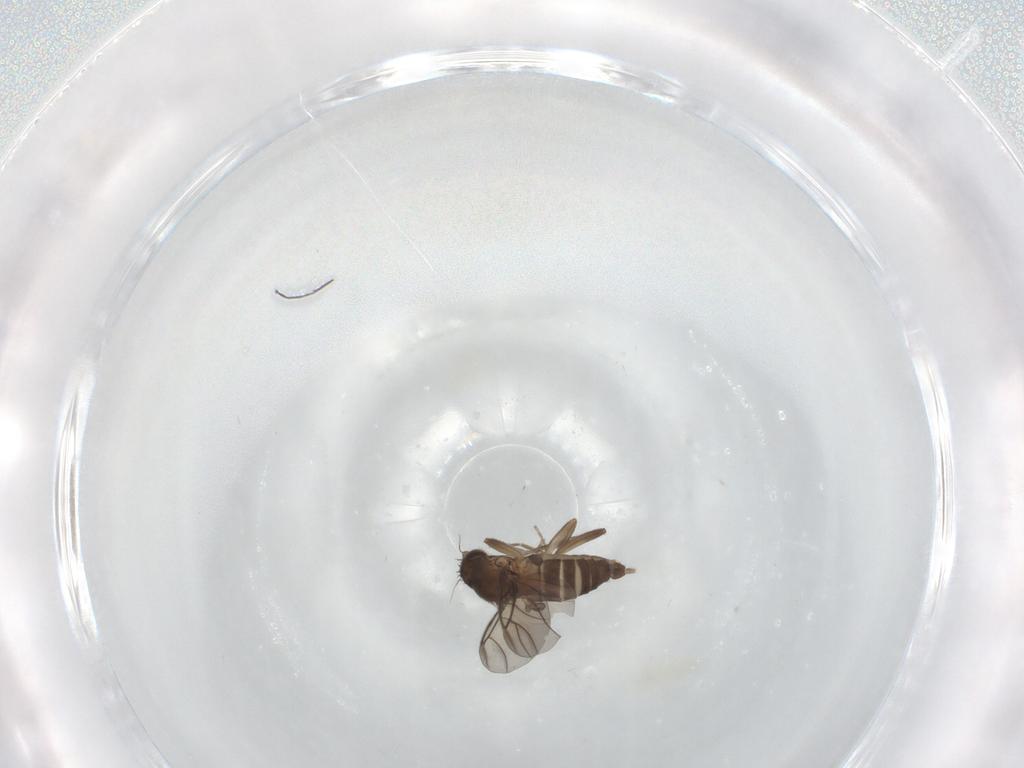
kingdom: Animalia
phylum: Arthropoda
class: Insecta
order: Diptera
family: Phoridae
